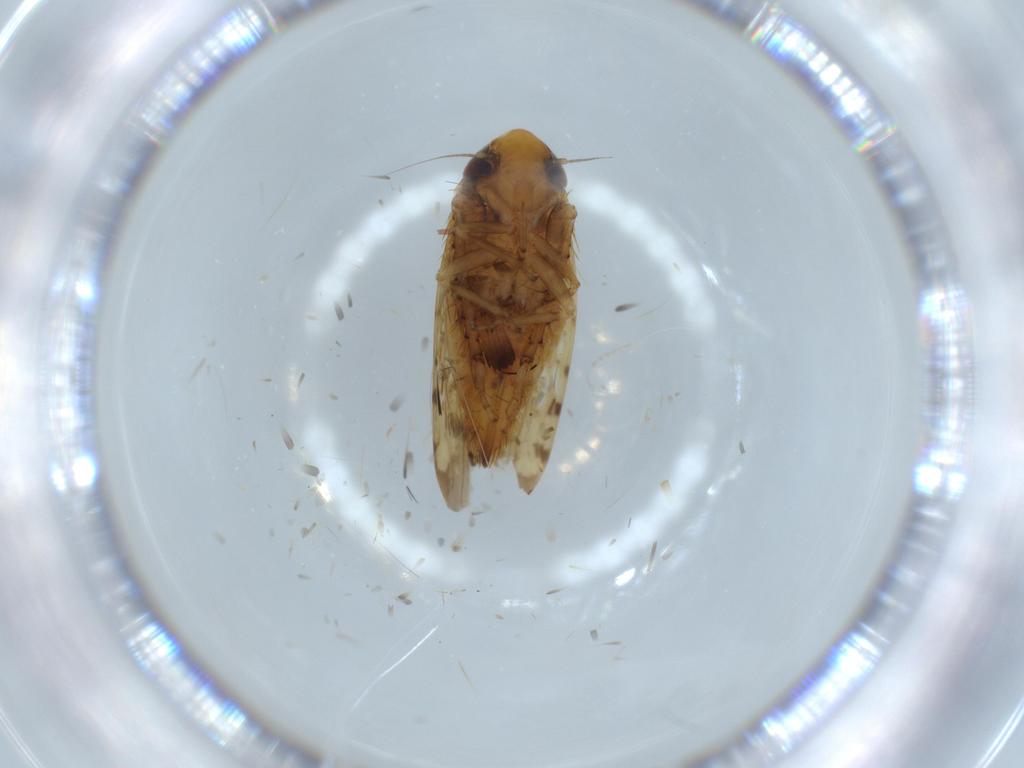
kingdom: Animalia
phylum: Arthropoda
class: Insecta
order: Hemiptera
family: Cicadellidae
